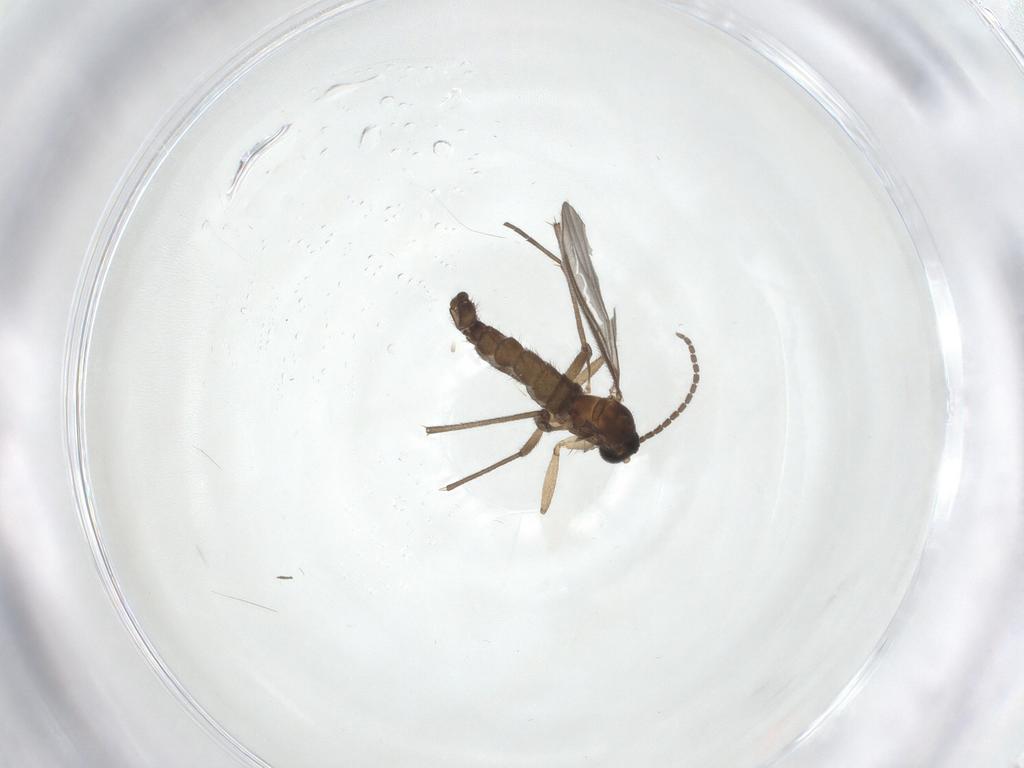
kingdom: Animalia
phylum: Arthropoda
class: Insecta
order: Diptera
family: Sciaridae
